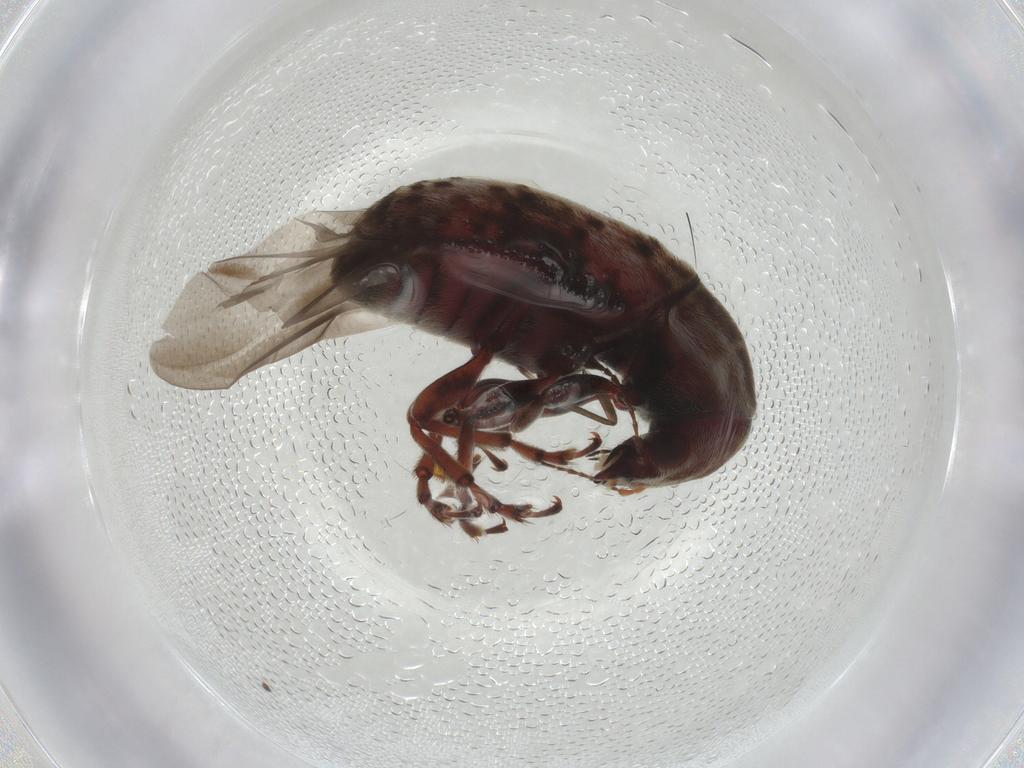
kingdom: Animalia
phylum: Arthropoda
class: Insecta
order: Coleoptera
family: Anthribidae
